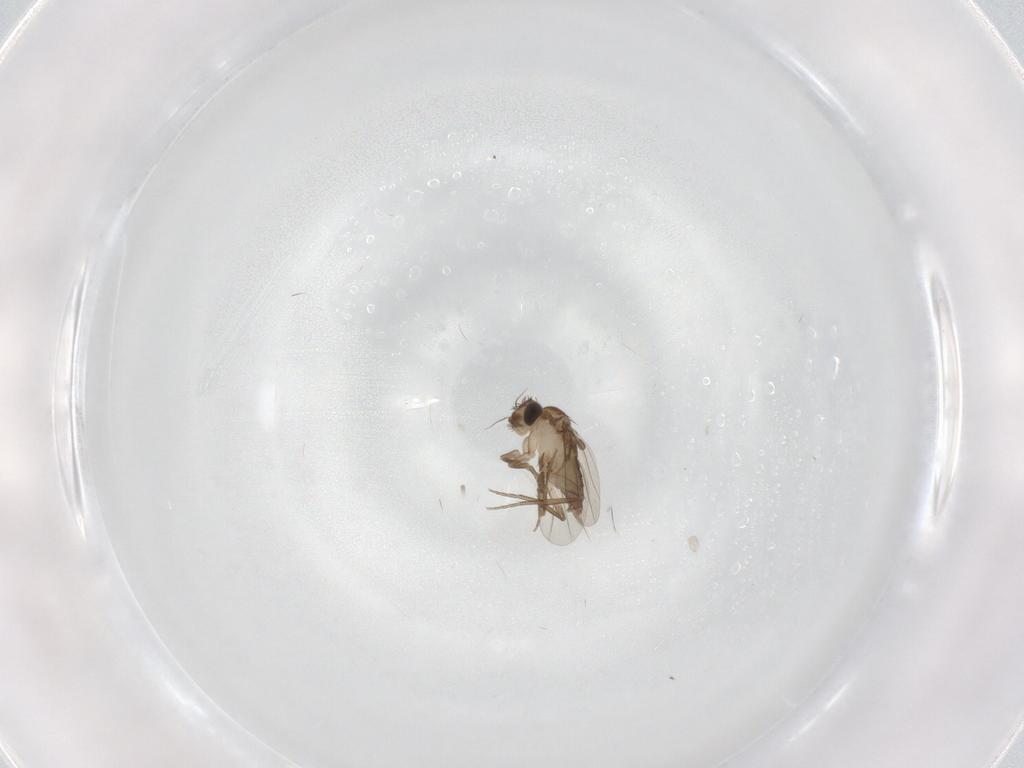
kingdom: Animalia
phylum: Arthropoda
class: Insecta
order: Diptera
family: Phoridae
